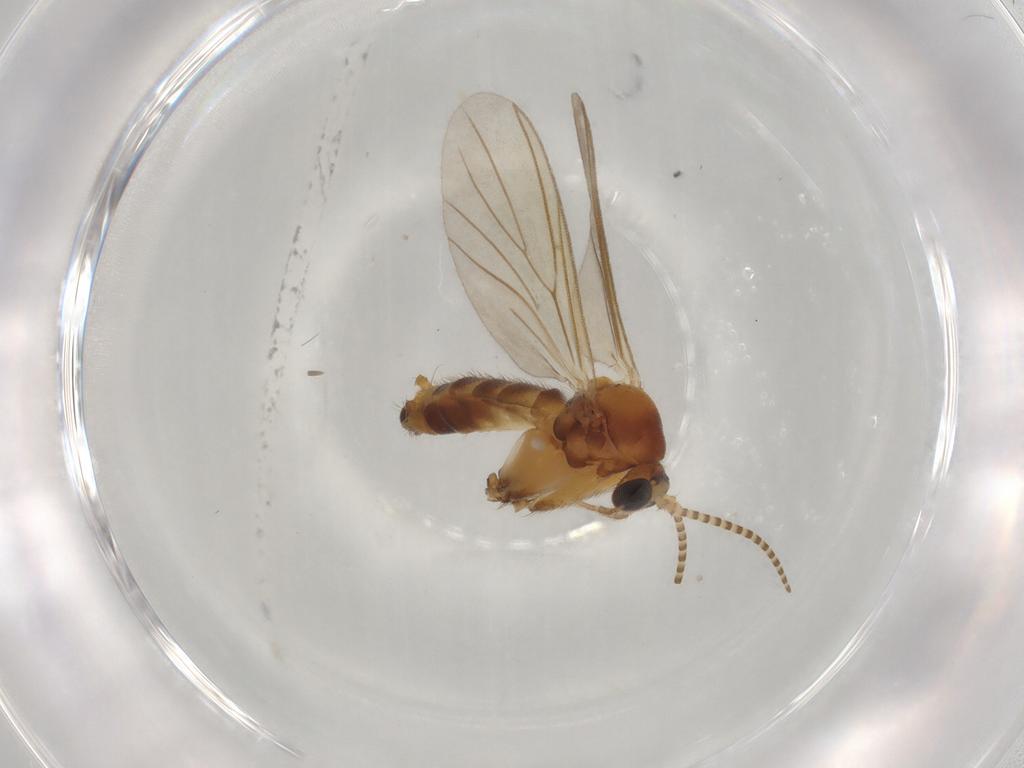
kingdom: Animalia
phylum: Arthropoda
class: Insecta
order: Diptera
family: Mycetophilidae
